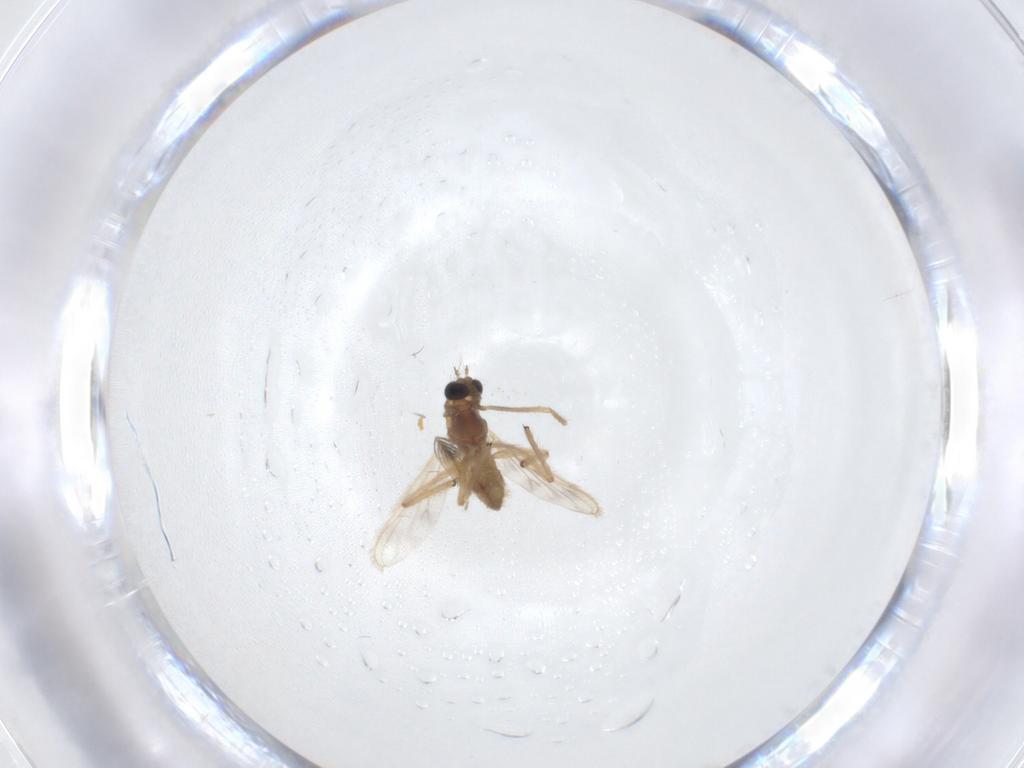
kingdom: Animalia
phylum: Arthropoda
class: Insecta
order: Diptera
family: Chironomidae
